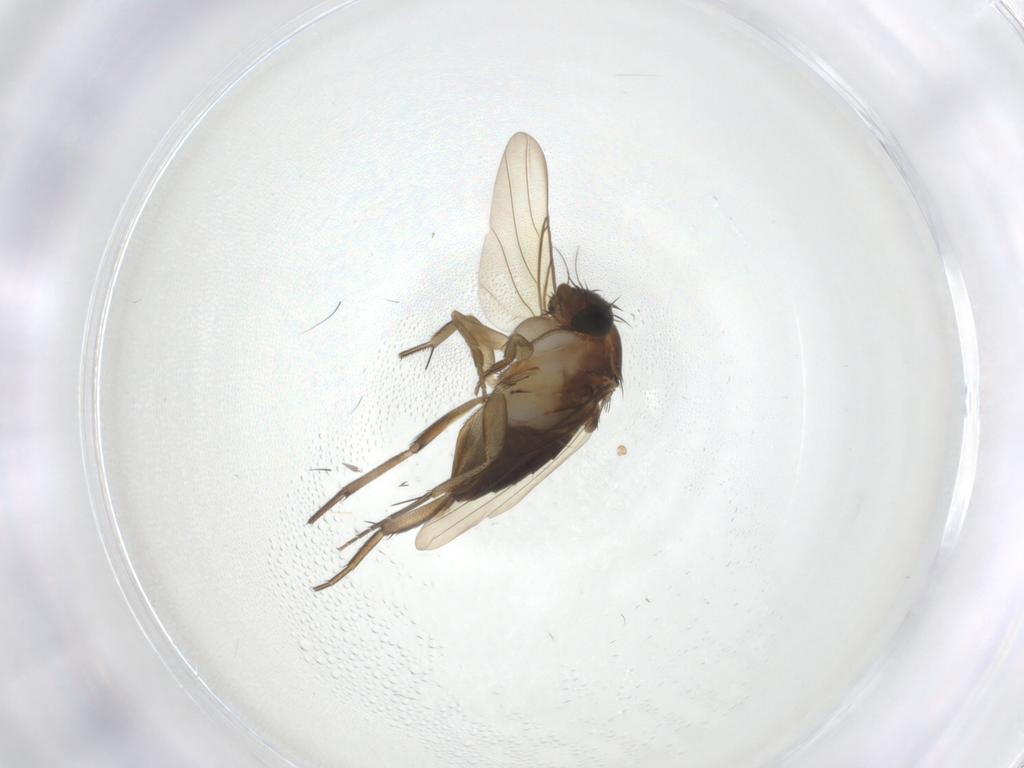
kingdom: Animalia
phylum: Arthropoda
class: Insecta
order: Diptera
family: Phoridae
